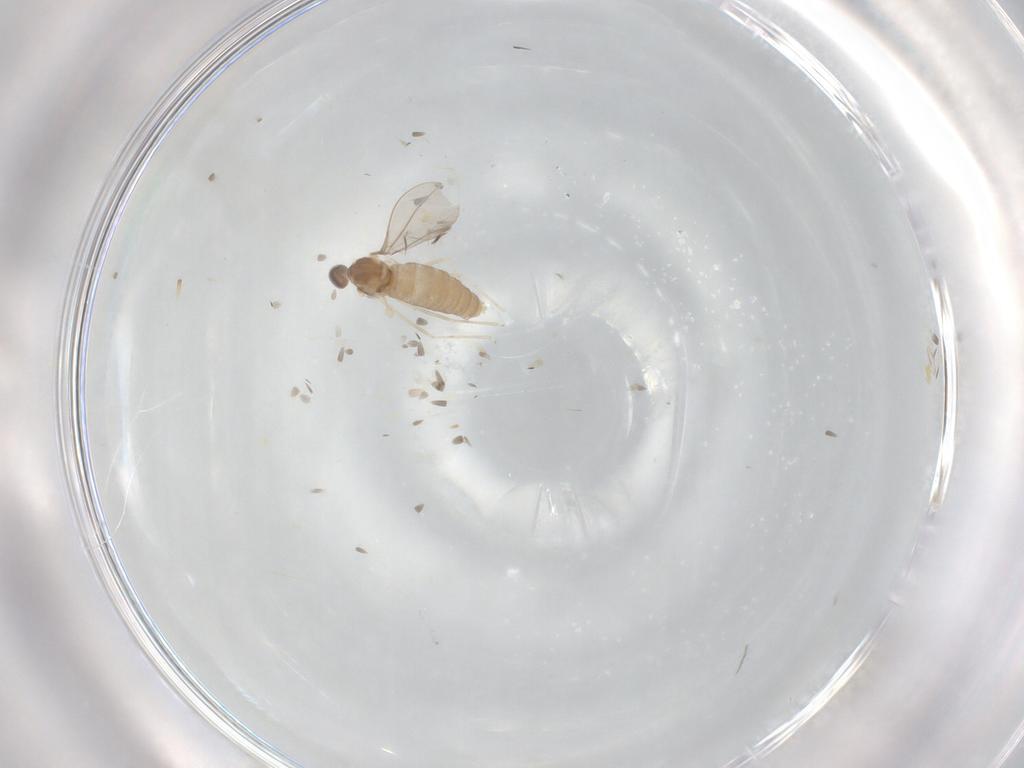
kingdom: Animalia
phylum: Arthropoda
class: Insecta
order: Diptera
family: Cecidomyiidae
